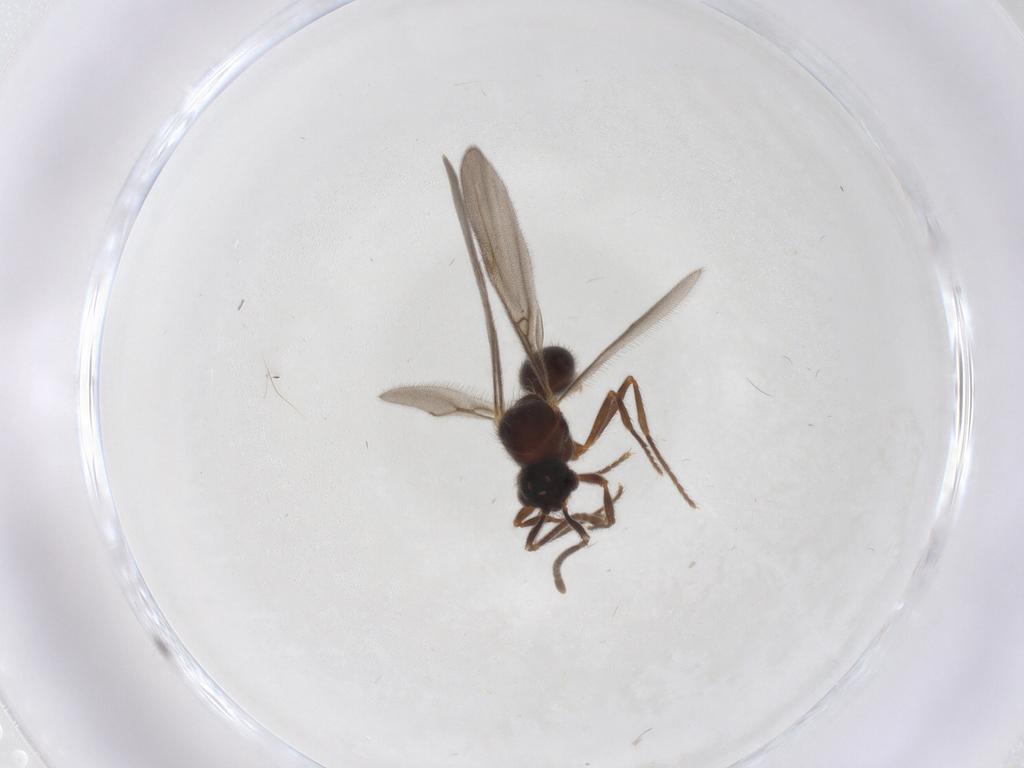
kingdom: Animalia
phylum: Arthropoda
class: Insecta
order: Hymenoptera
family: Formicidae
